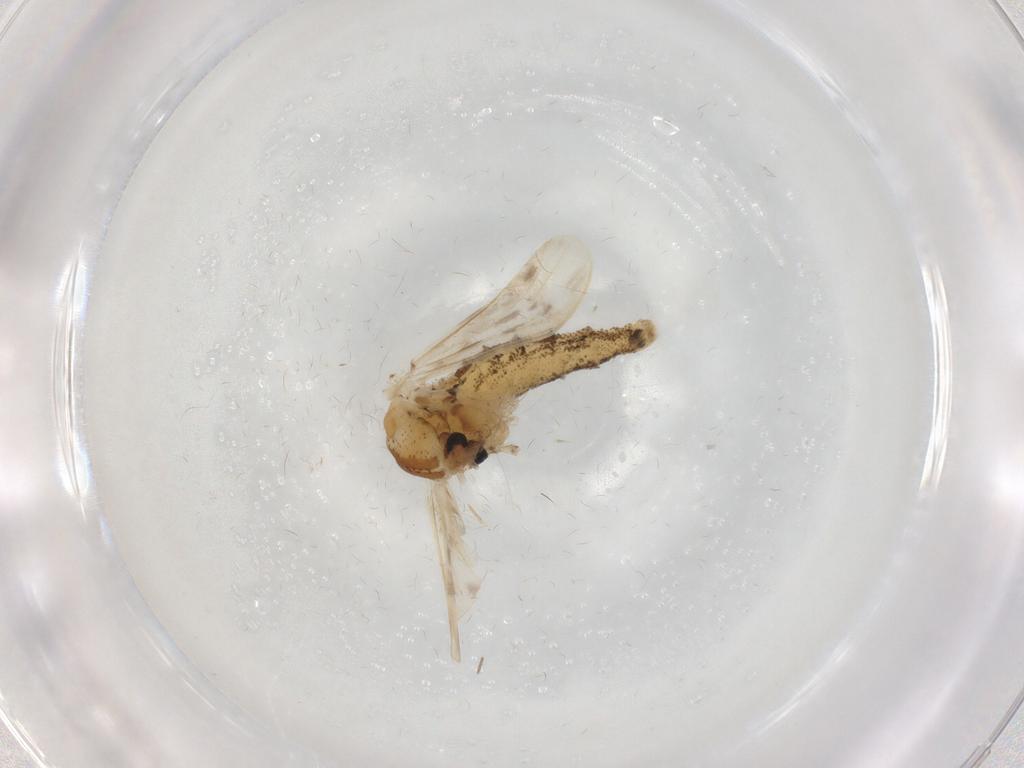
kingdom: Animalia
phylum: Arthropoda
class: Insecta
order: Diptera
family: Chaoboridae
